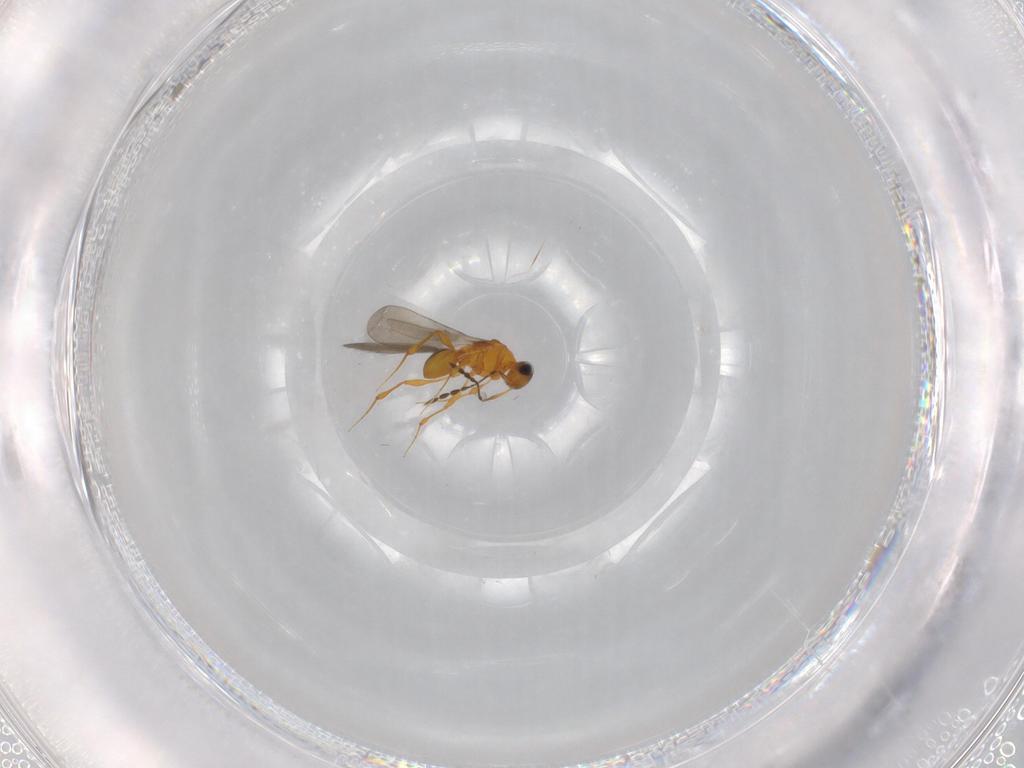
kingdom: Animalia
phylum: Arthropoda
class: Insecta
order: Hymenoptera
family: Platygastridae
